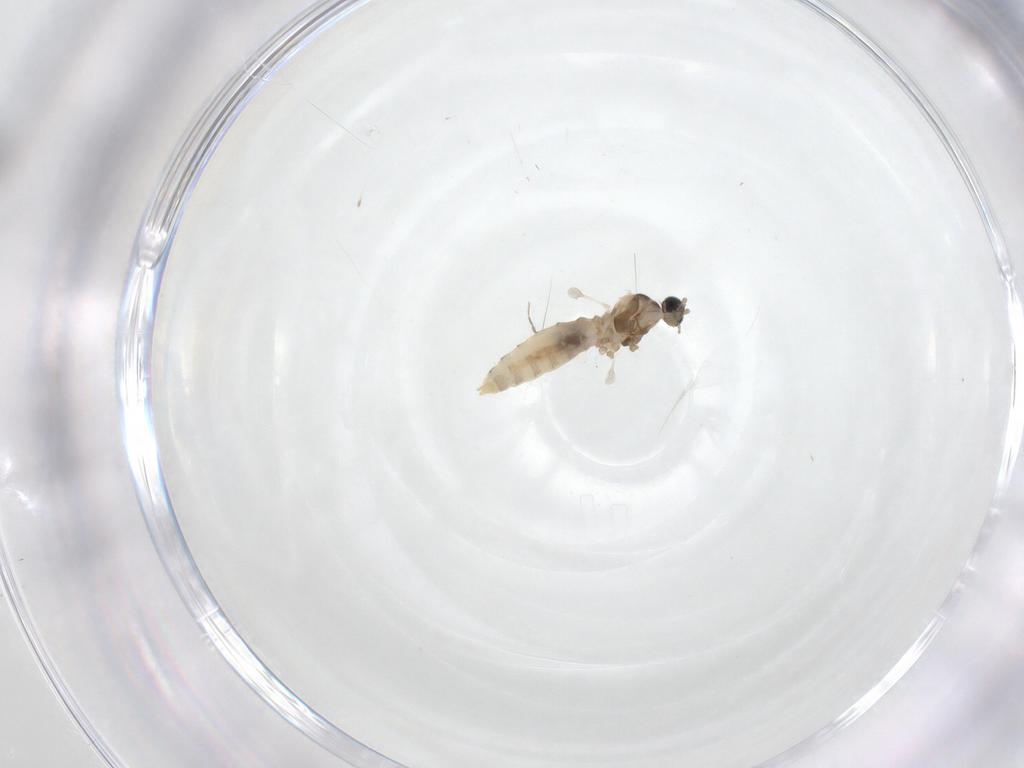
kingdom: Animalia
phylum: Arthropoda
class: Insecta
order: Diptera
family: Cecidomyiidae
